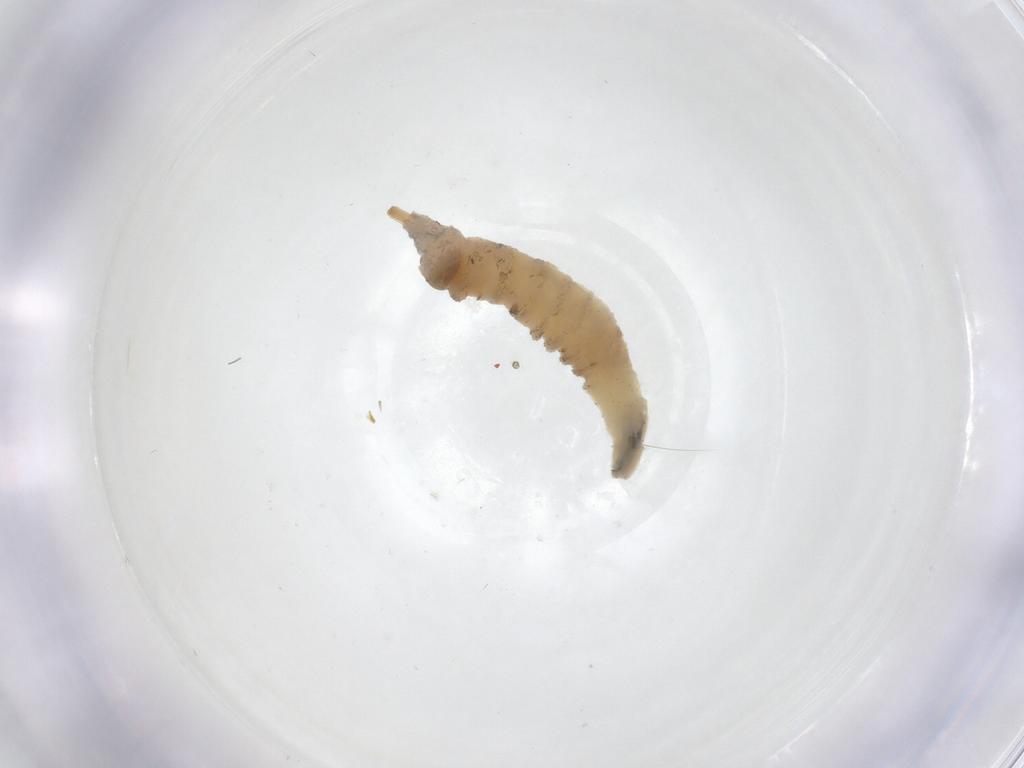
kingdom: Animalia
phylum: Arthropoda
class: Insecta
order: Diptera
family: Drosophilidae
